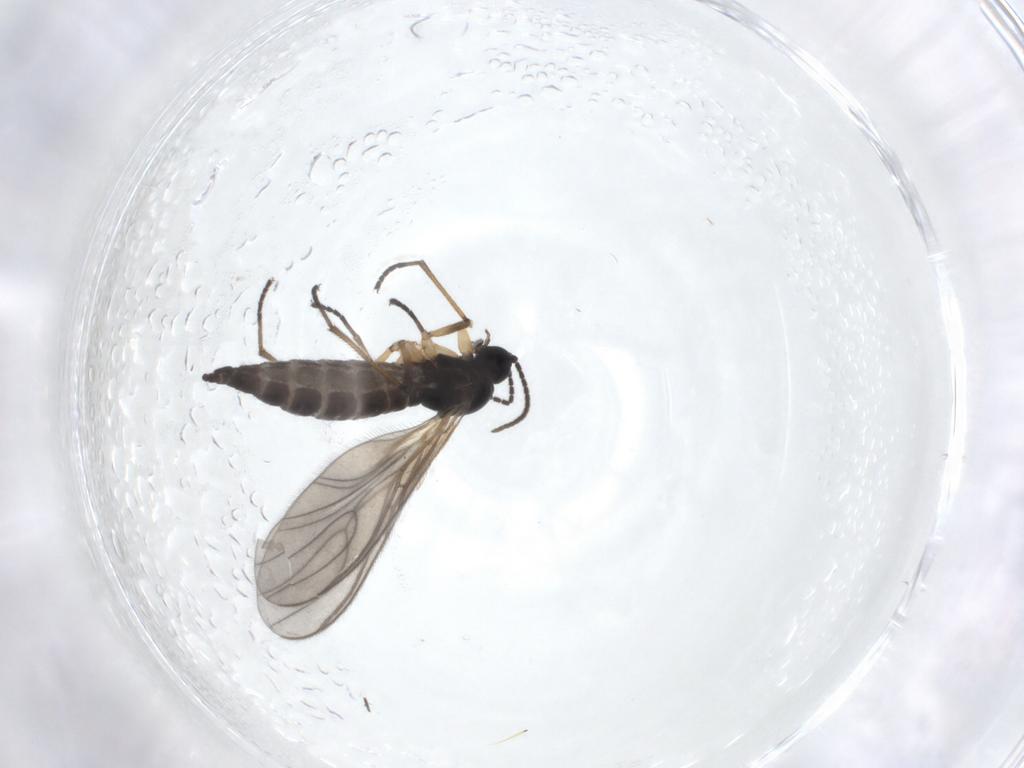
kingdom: Animalia
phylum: Arthropoda
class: Insecta
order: Diptera
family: Sciaridae
